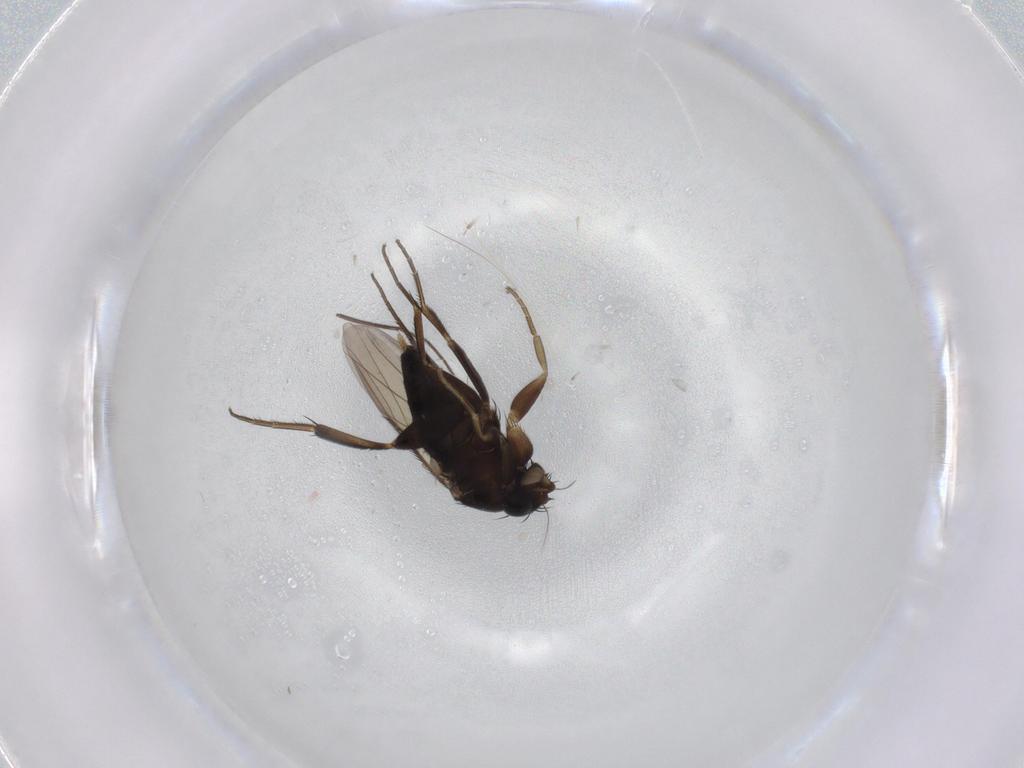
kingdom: Animalia
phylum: Arthropoda
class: Insecta
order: Diptera
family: Phoridae
